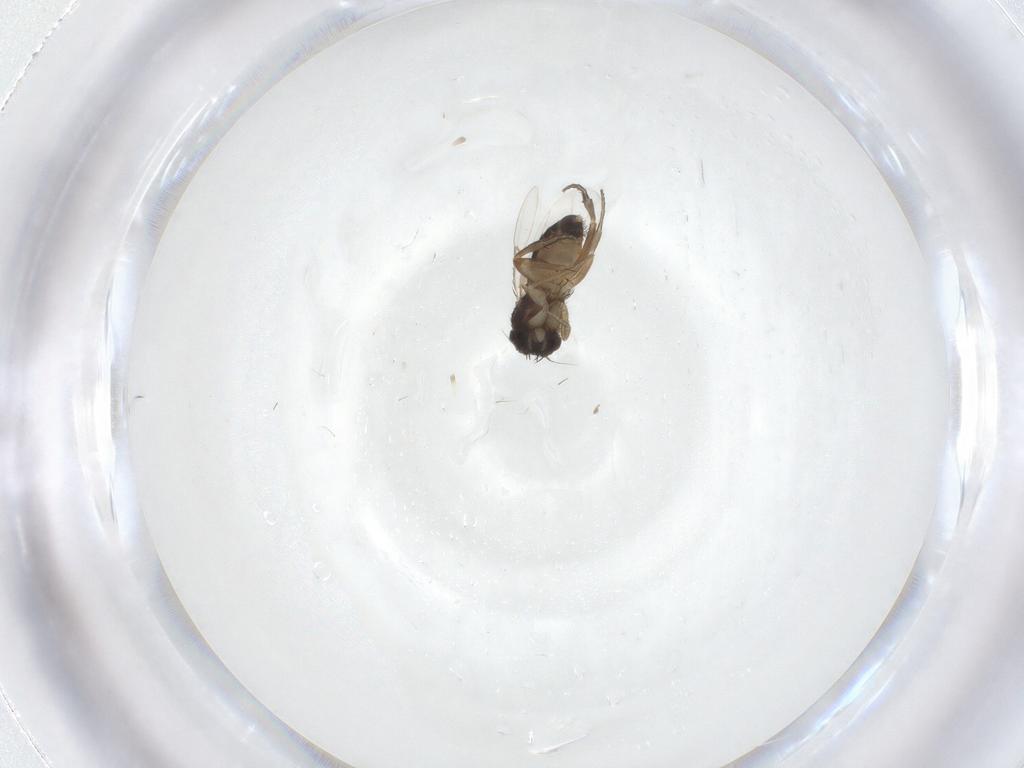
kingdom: Animalia
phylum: Arthropoda
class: Insecta
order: Diptera
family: Phoridae
